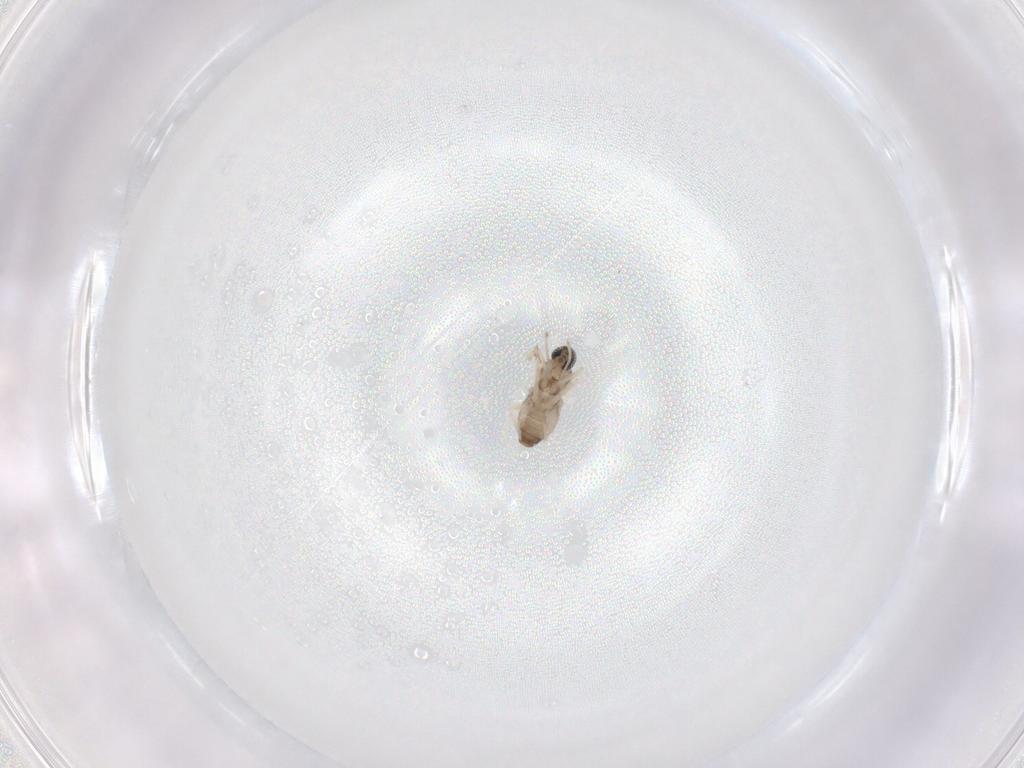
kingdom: Animalia
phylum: Arthropoda
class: Insecta
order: Diptera
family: Cecidomyiidae
